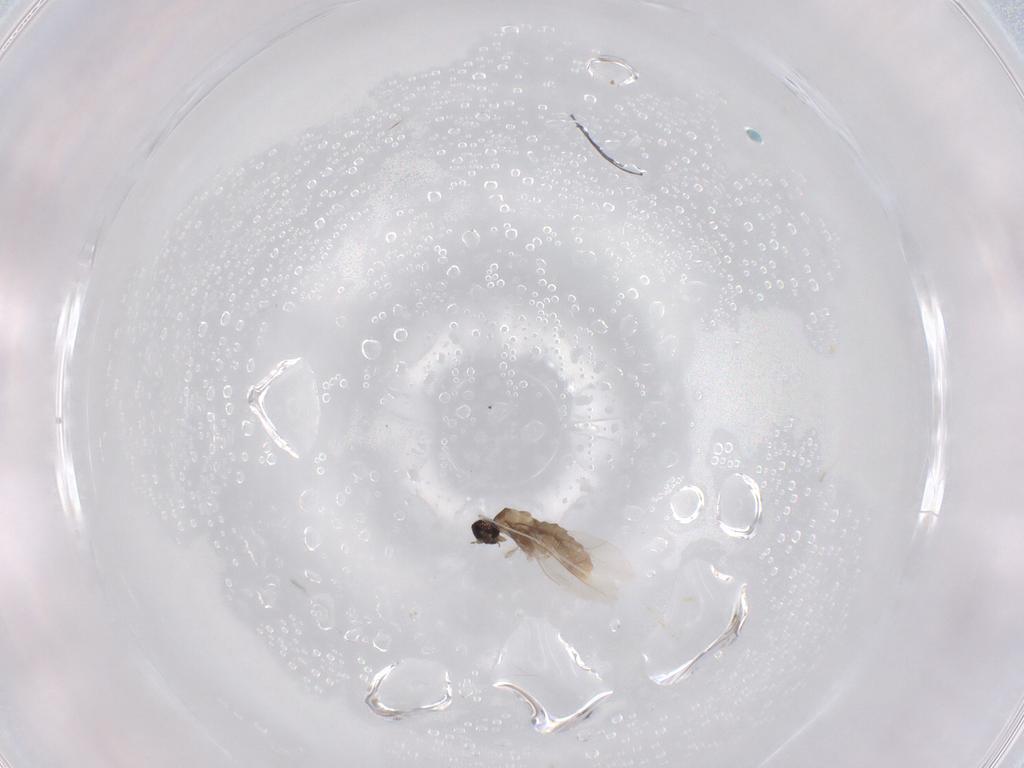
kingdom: Animalia
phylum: Arthropoda
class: Insecta
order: Diptera
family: Cecidomyiidae
